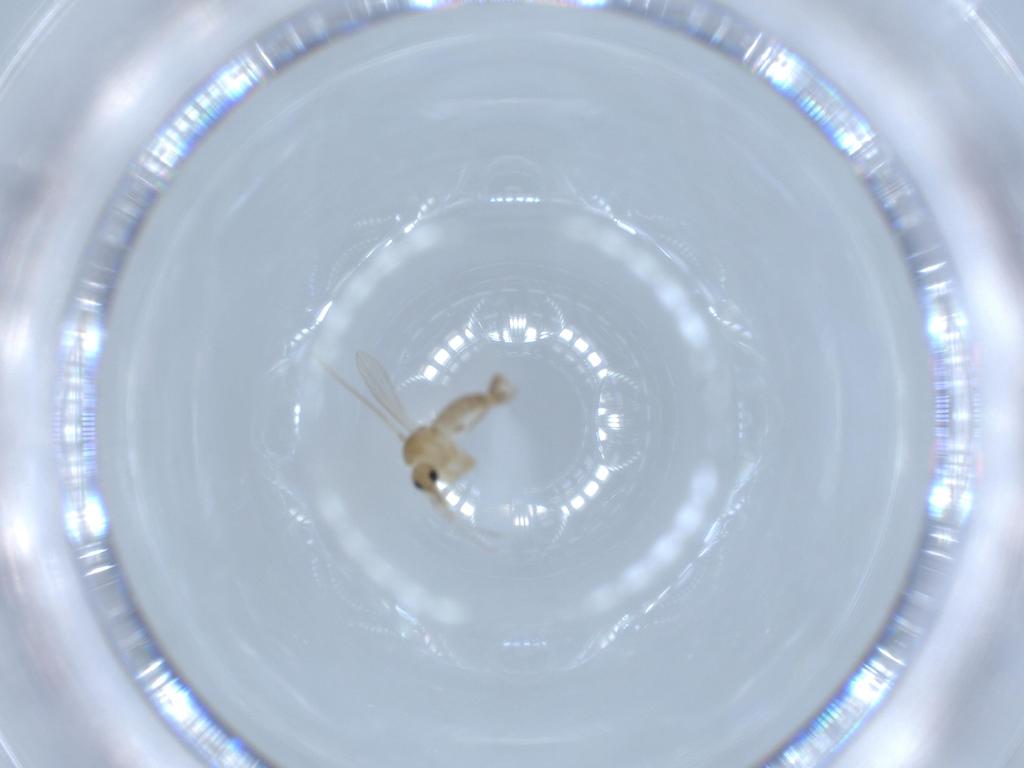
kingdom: Animalia
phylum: Arthropoda
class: Insecta
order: Diptera
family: Psychodidae
